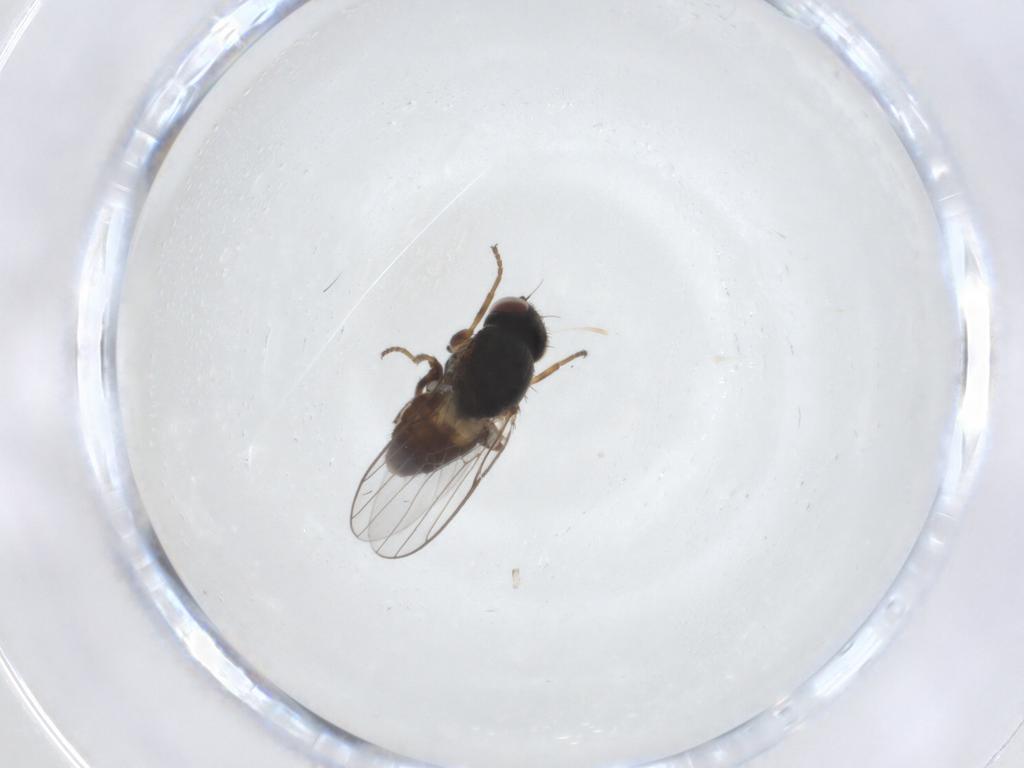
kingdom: Animalia
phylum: Arthropoda
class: Insecta
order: Diptera
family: Chloropidae
